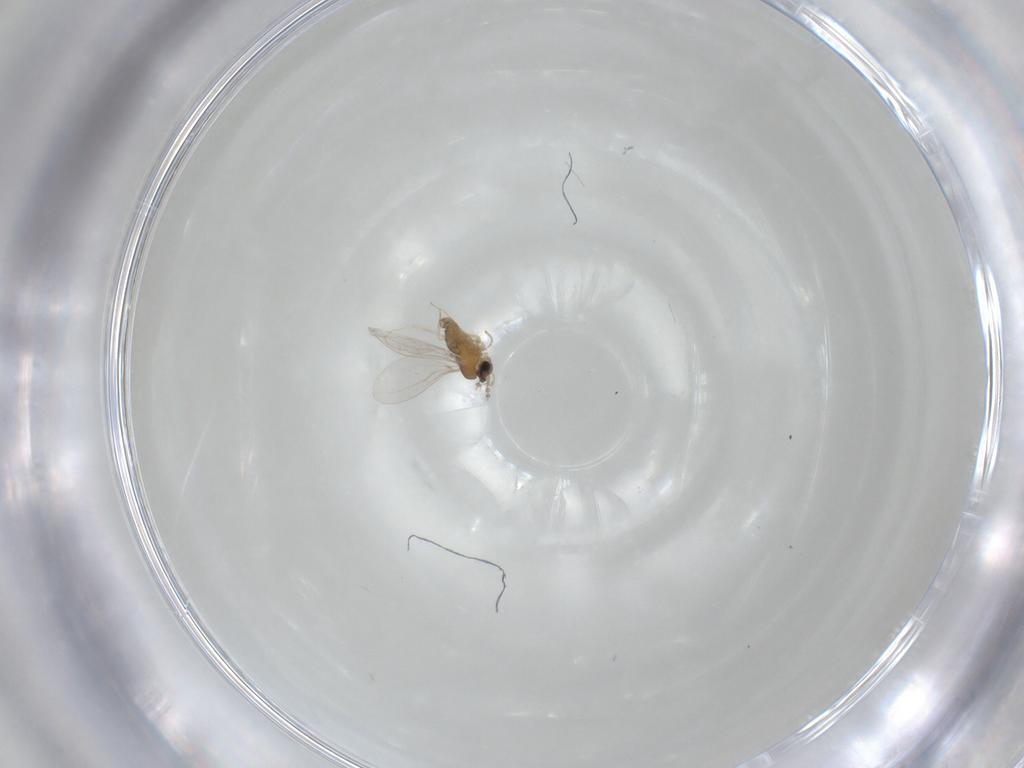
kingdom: Animalia
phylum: Arthropoda
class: Insecta
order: Diptera
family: Cecidomyiidae
